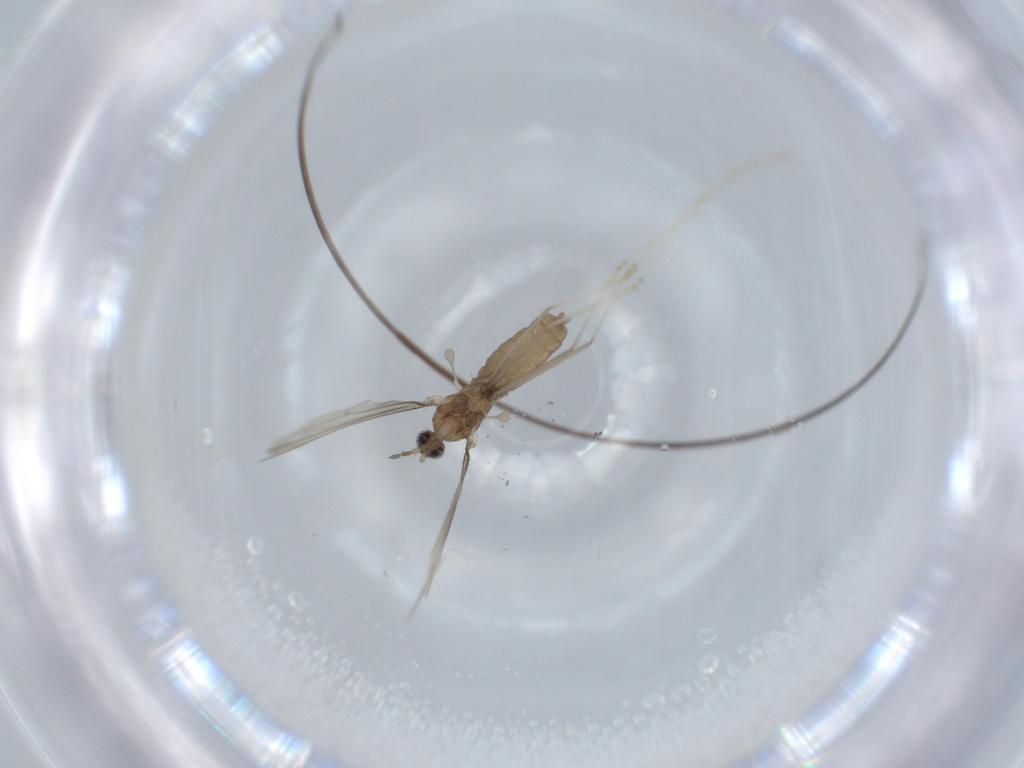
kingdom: Animalia
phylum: Arthropoda
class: Insecta
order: Diptera
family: Cecidomyiidae
